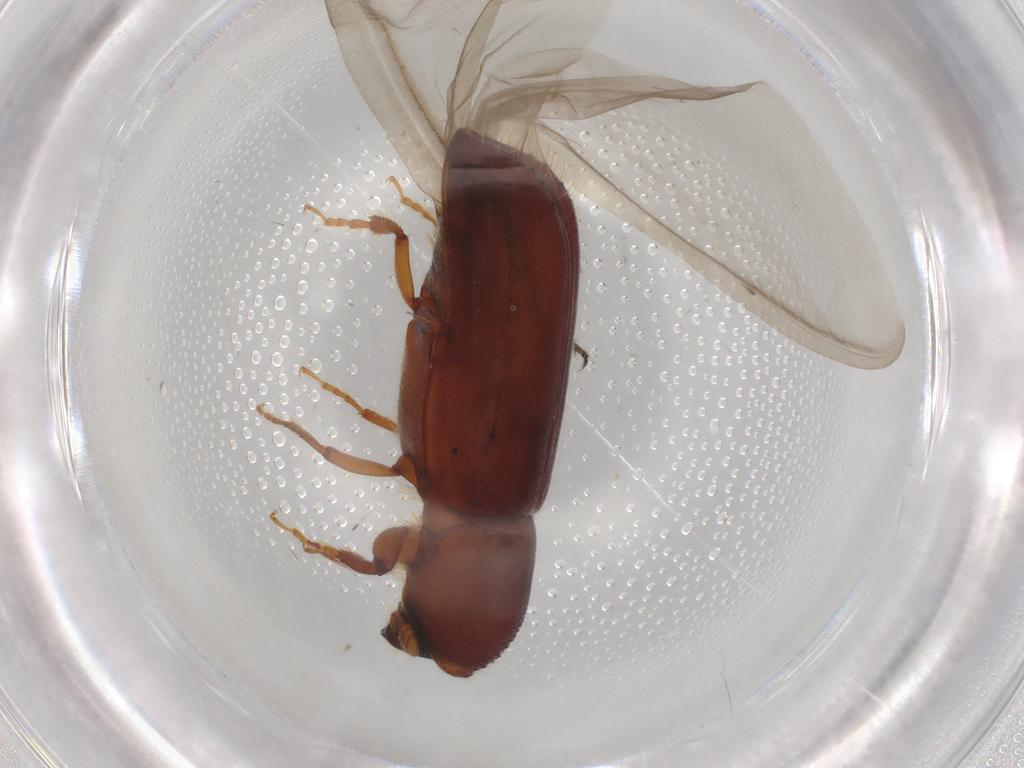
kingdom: Animalia
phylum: Arthropoda
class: Insecta
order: Coleoptera
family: Curculionidae
